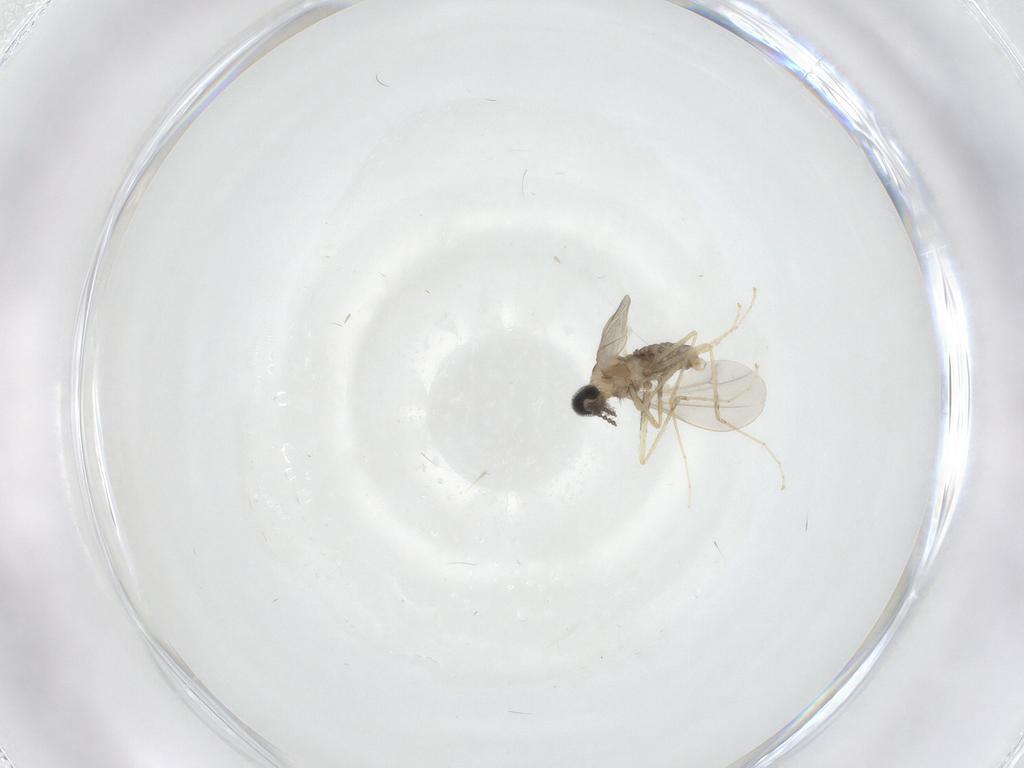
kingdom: Animalia
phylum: Arthropoda
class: Insecta
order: Diptera
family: Cecidomyiidae
